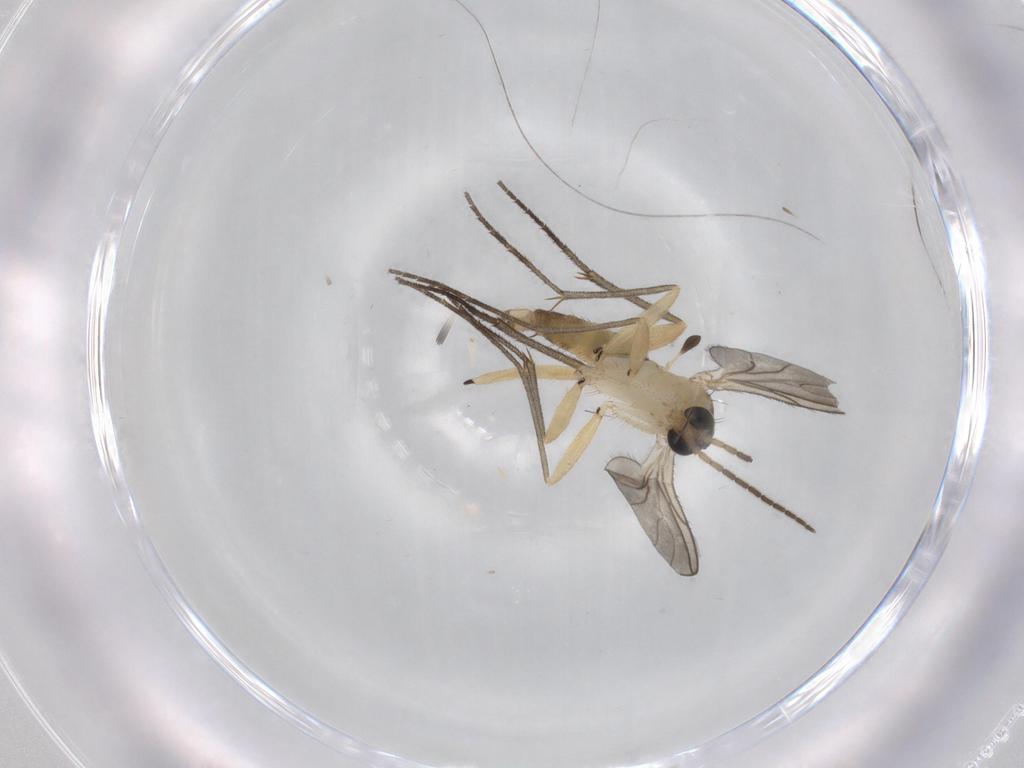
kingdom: Animalia
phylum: Arthropoda
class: Insecta
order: Diptera
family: Sciaridae
